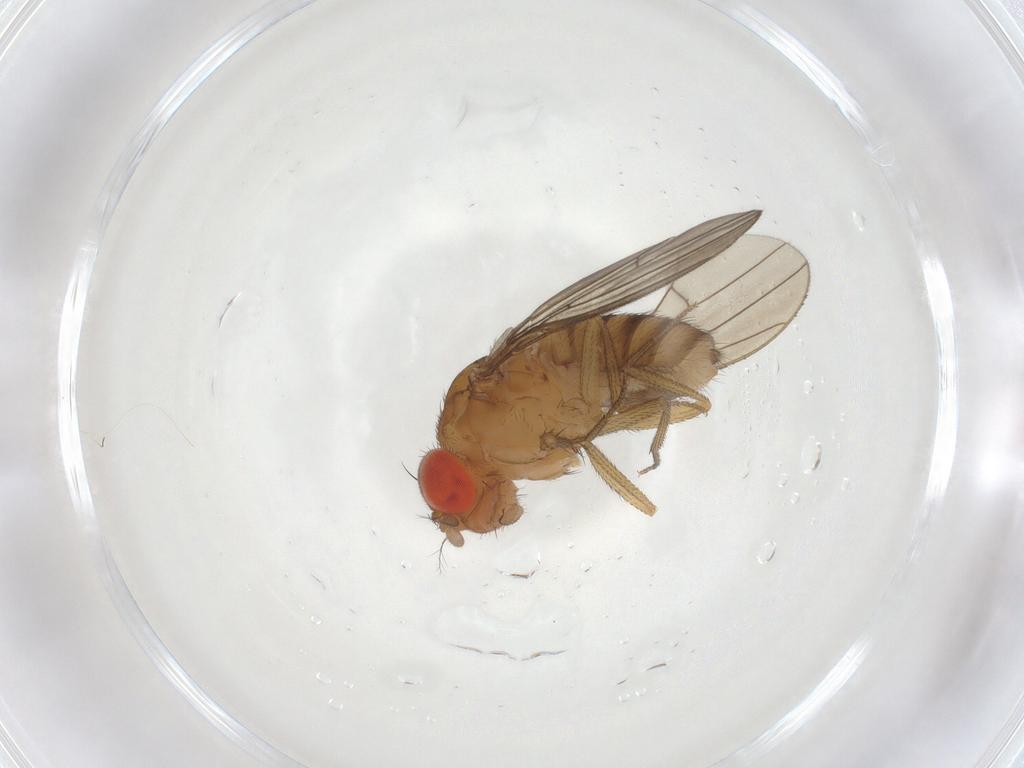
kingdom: Animalia
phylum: Arthropoda
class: Insecta
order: Diptera
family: Drosophilidae
